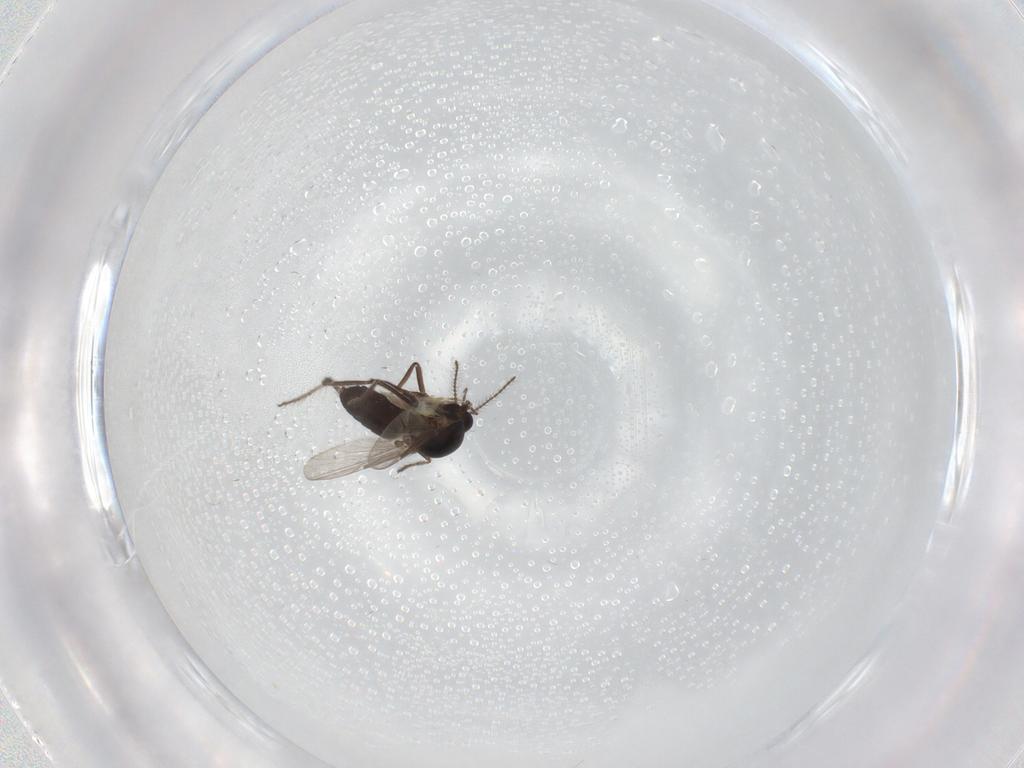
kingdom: Animalia
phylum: Arthropoda
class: Insecta
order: Diptera
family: Ceratopogonidae
